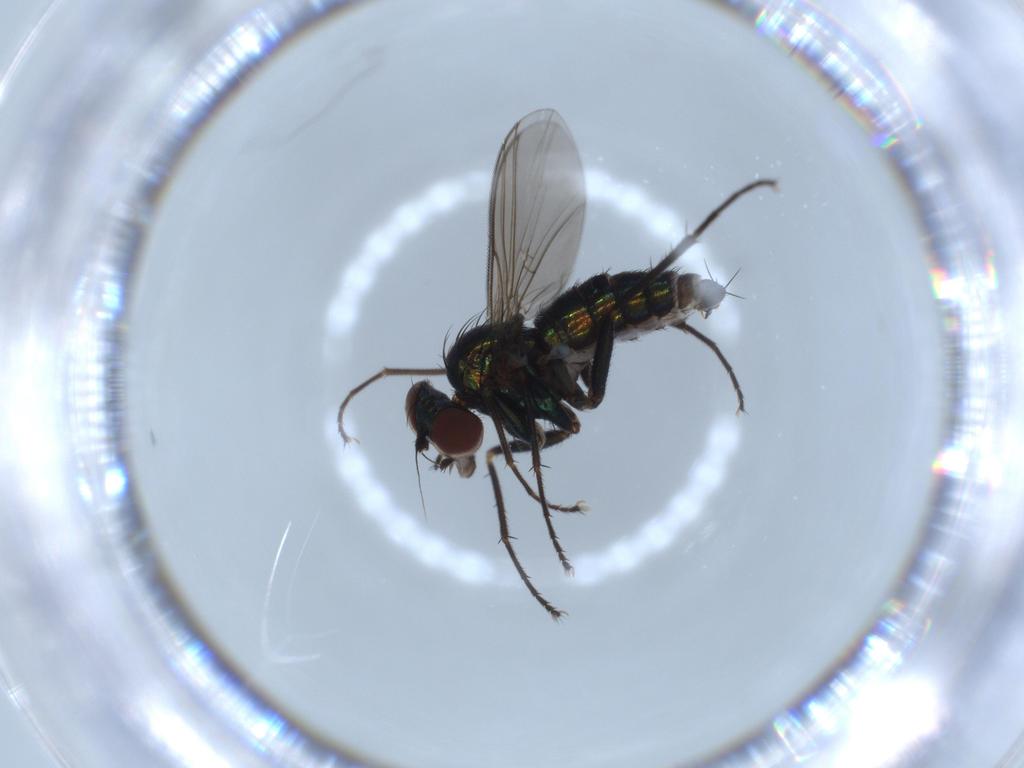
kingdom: Animalia
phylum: Arthropoda
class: Insecta
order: Diptera
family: Dolichopodidae
